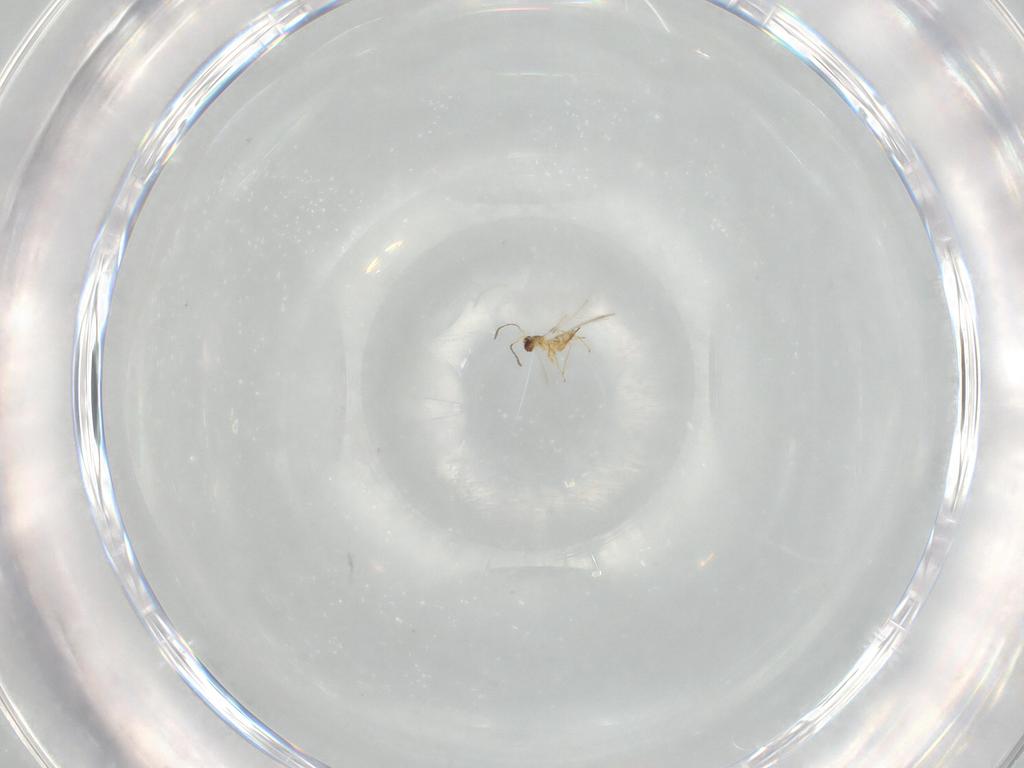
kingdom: Animalia
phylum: Arthropoda
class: Insecta
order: Hymenoptera
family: Mymaridae
